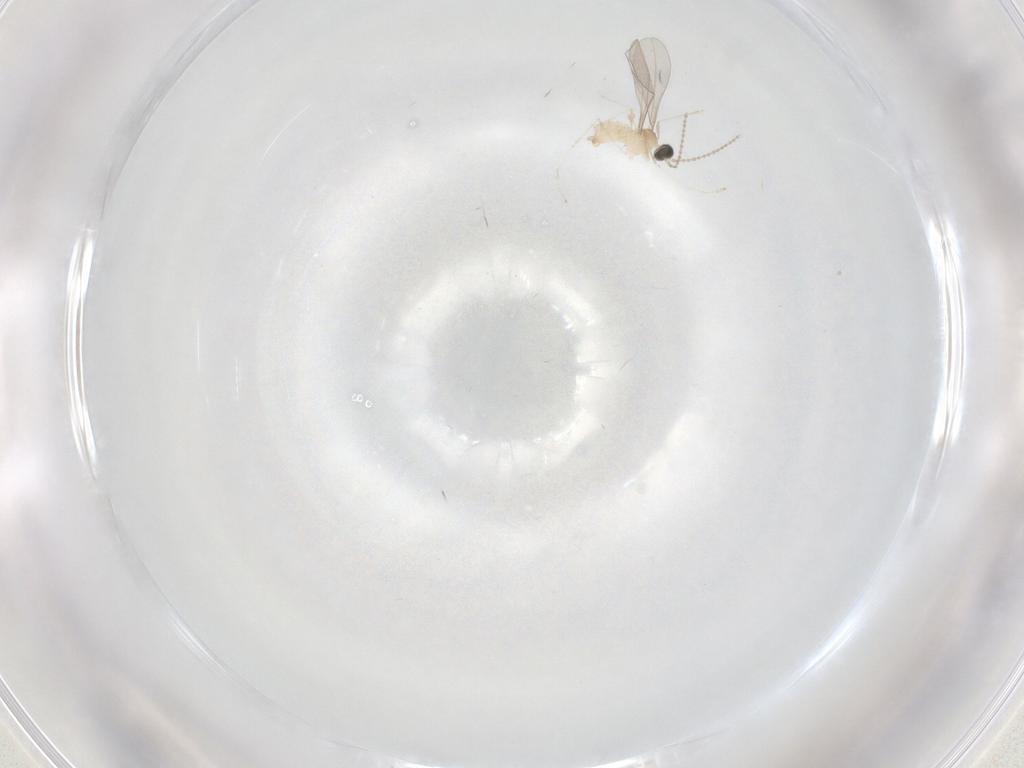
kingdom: Animalia
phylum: Arthropoda
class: Insecta
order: Diptera
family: Cecidomyiidae
